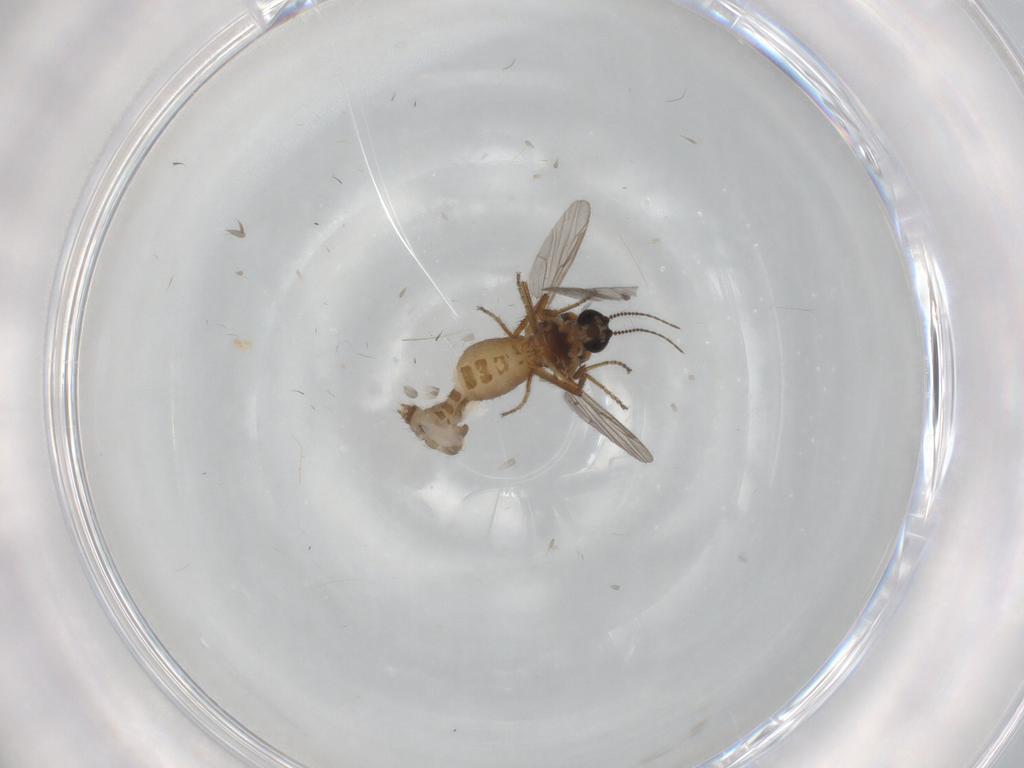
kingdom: Animalia
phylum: Arthropoda
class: Insecta
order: Diptera
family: Ceratopogonidae
